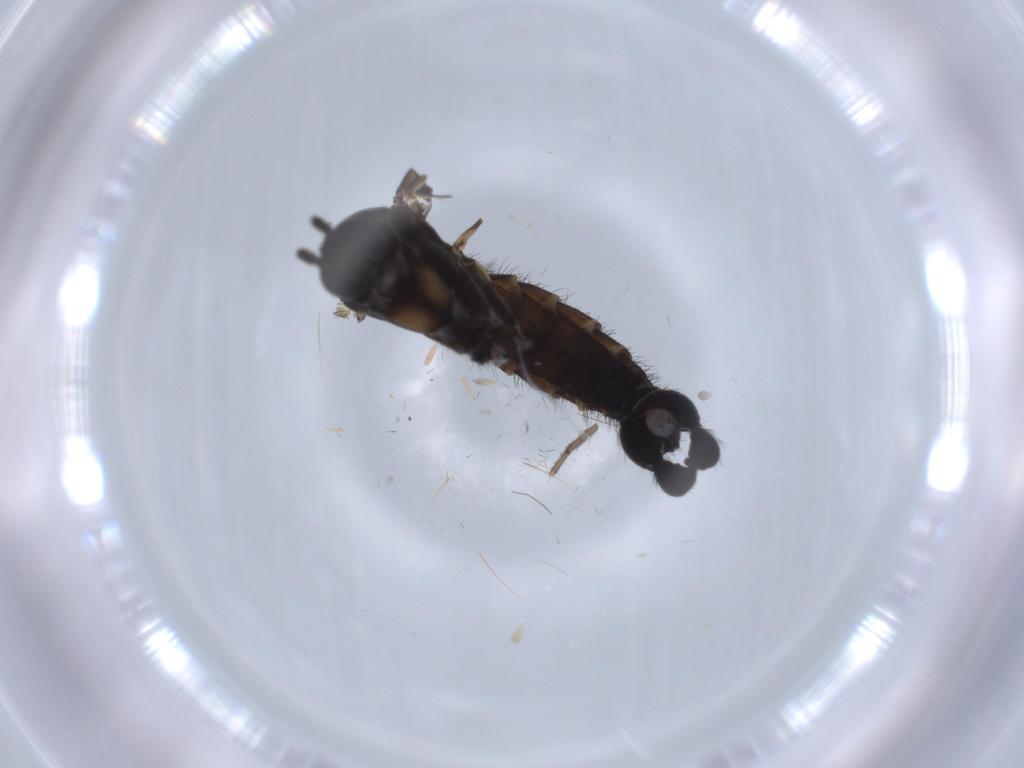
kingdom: Animalia
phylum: Arthropoda
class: Insecta
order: Diptera
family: Sciaridae
